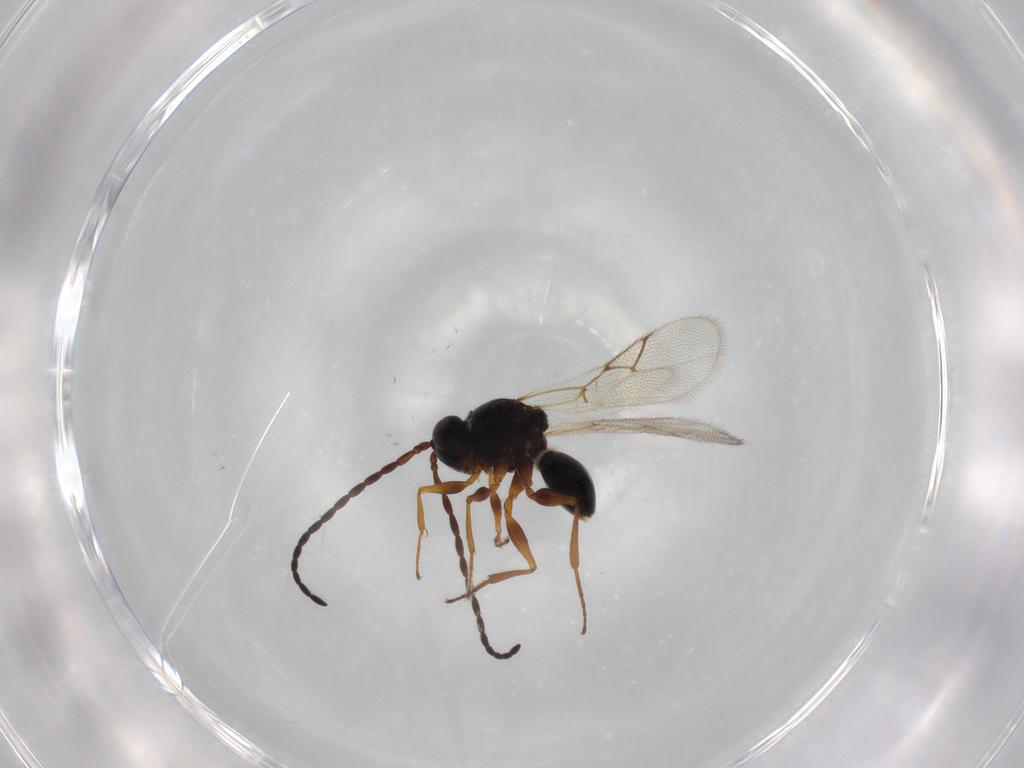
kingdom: Animalia
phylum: Arthropoda
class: Insecta
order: Hymenoptera
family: Figitidae
